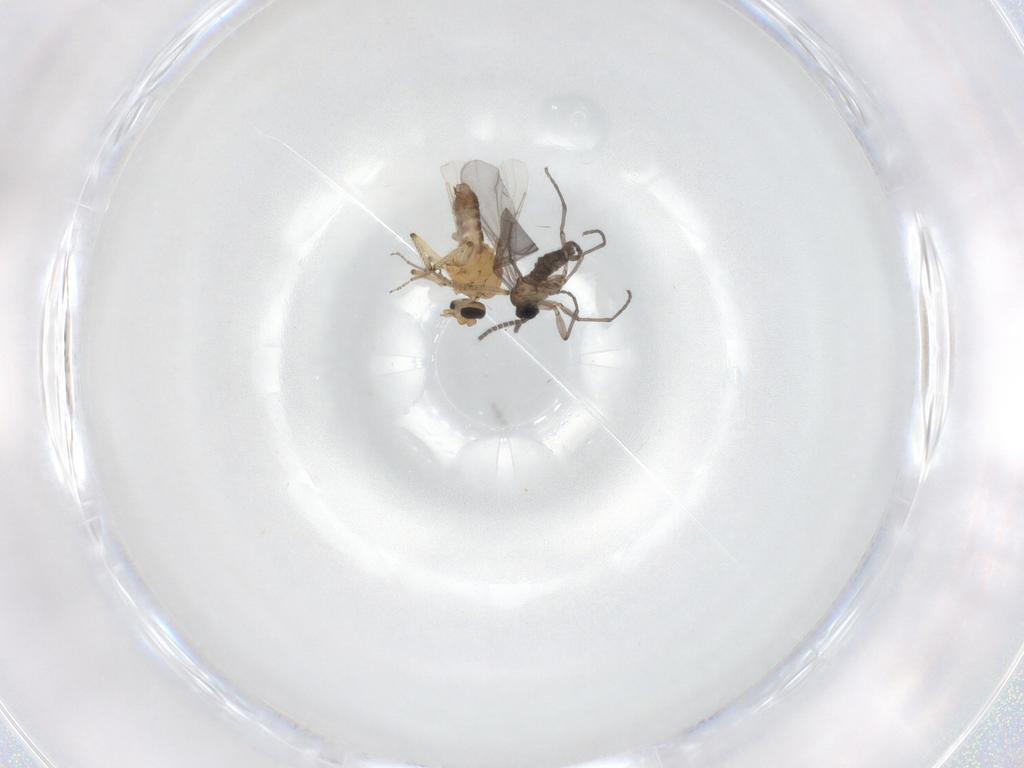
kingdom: Animalia
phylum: Arthropoda
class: Insecta
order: Diptera
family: Sciaridae
